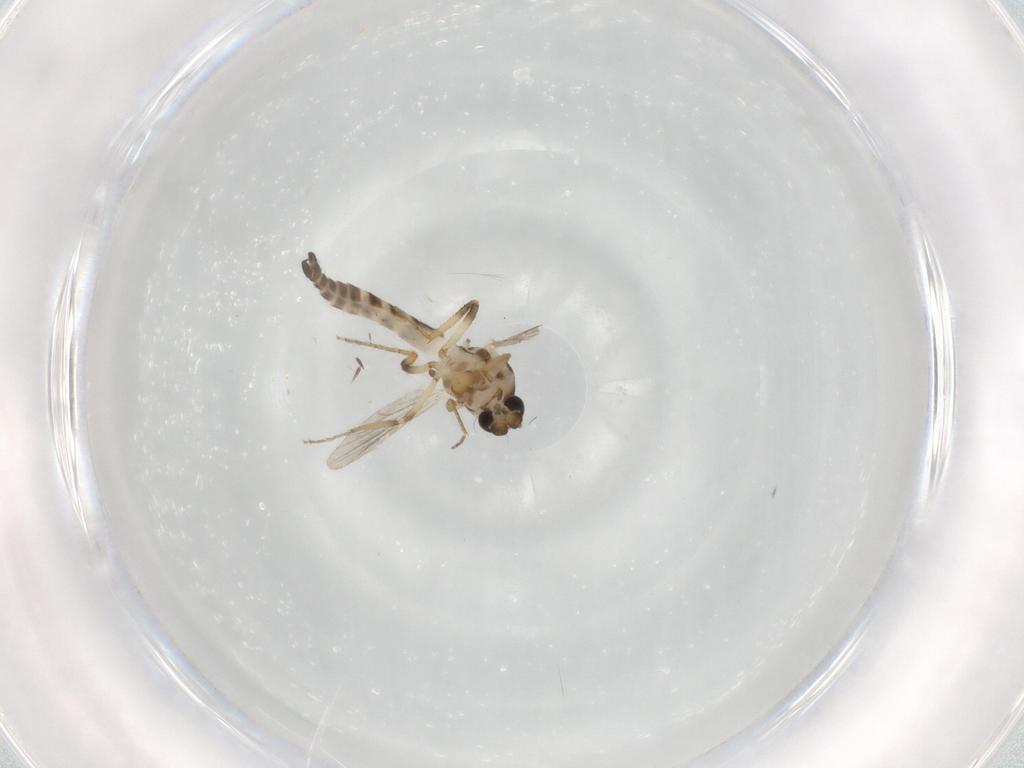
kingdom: Animalia
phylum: Arthropoda
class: Insecta
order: Diptera
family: Ceratopogonidae
